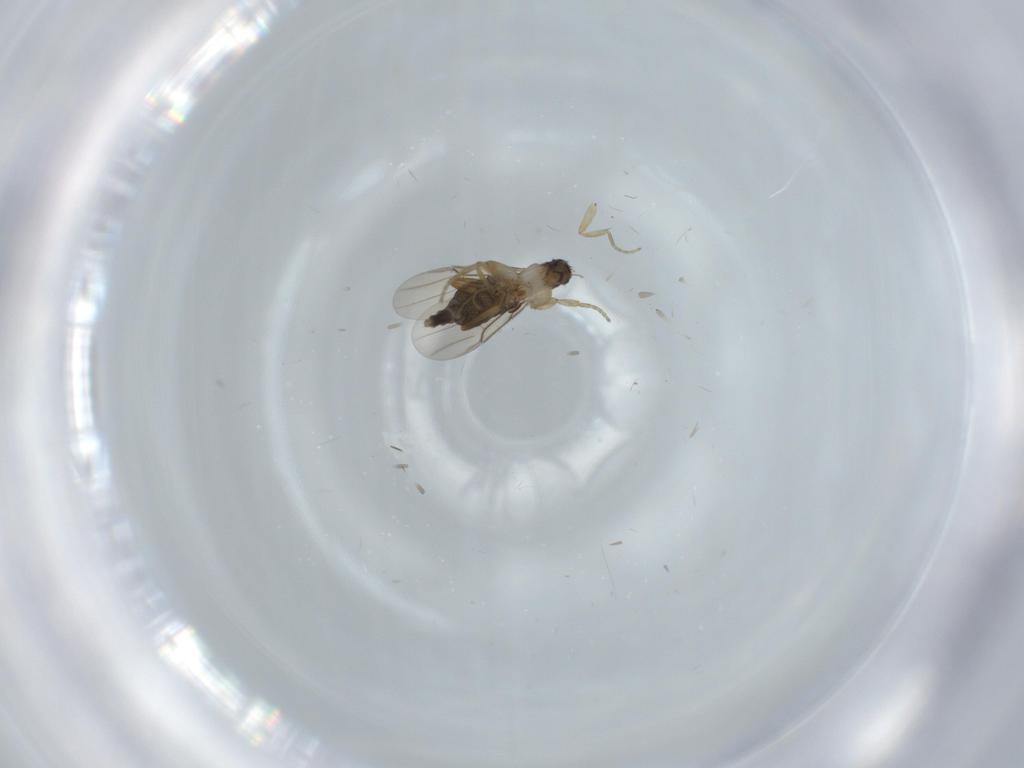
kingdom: Animalia
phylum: Arthropoda
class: Insecta
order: Diptera
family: Phoridae
